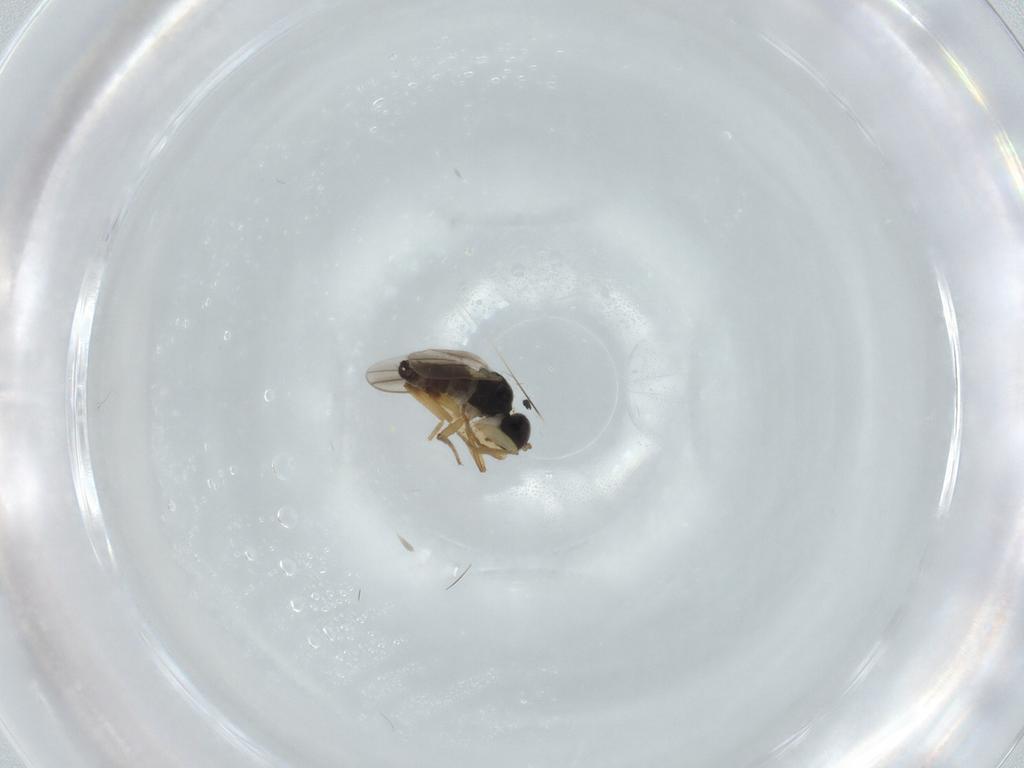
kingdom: Animalia
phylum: Arthropoda
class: Insecta
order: Diptera
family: Hybotidae
